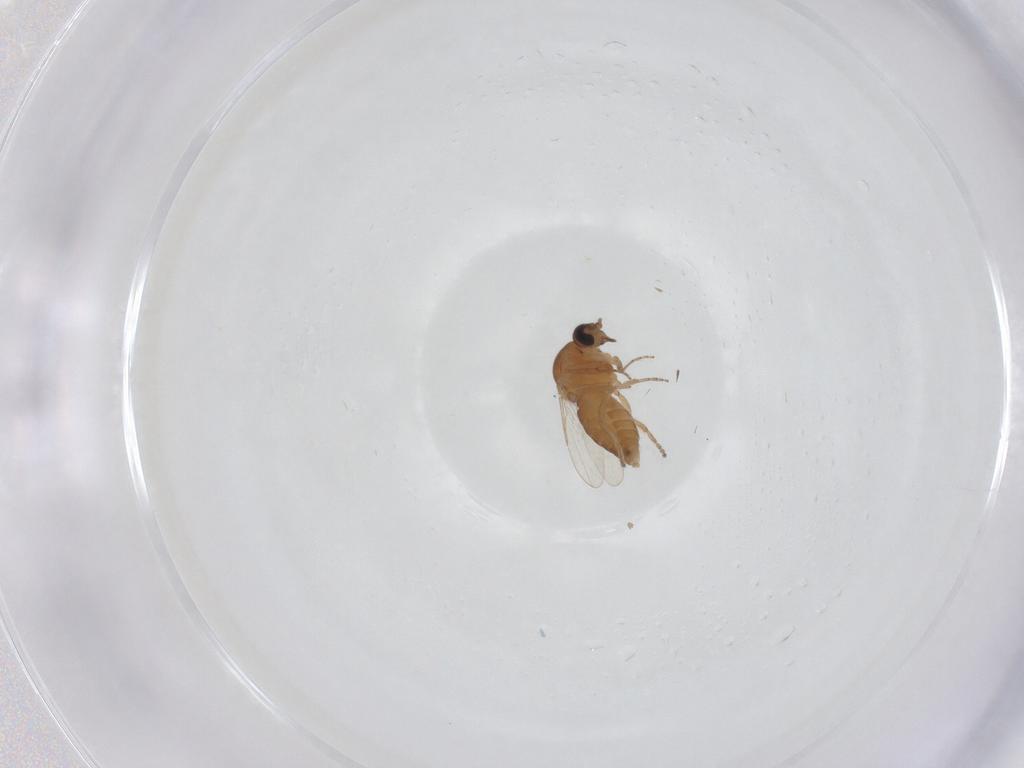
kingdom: Animalia
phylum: Arthropoda
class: Insecta
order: Diptera
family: Ceratopogonidae
